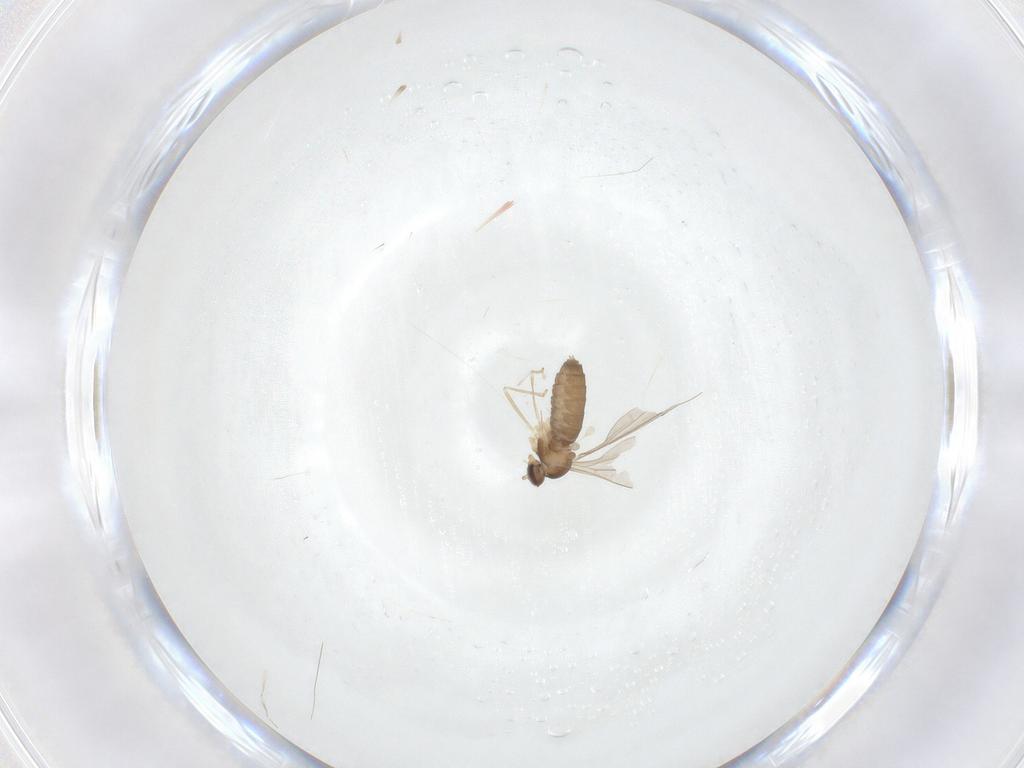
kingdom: Animalia
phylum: Arthropoda
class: Insecta
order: Diptera
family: Cecidomyiidae
